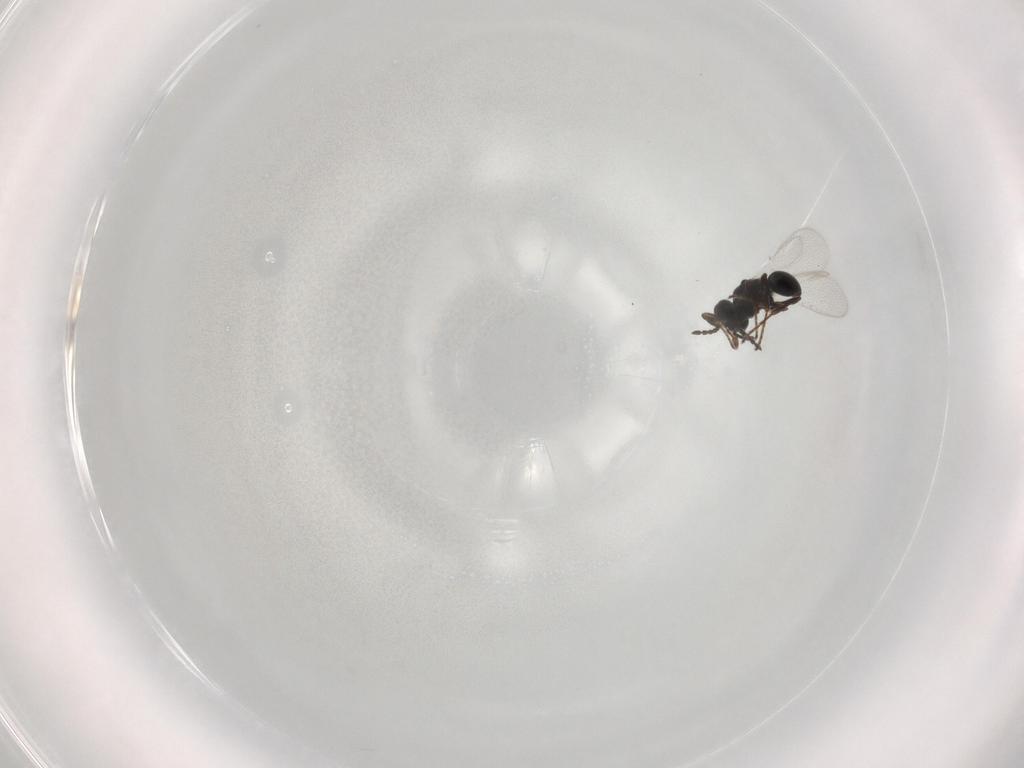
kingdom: Animalia
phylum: Arthropoda
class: Insecta
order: Hymenoptera
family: Platygastridae
